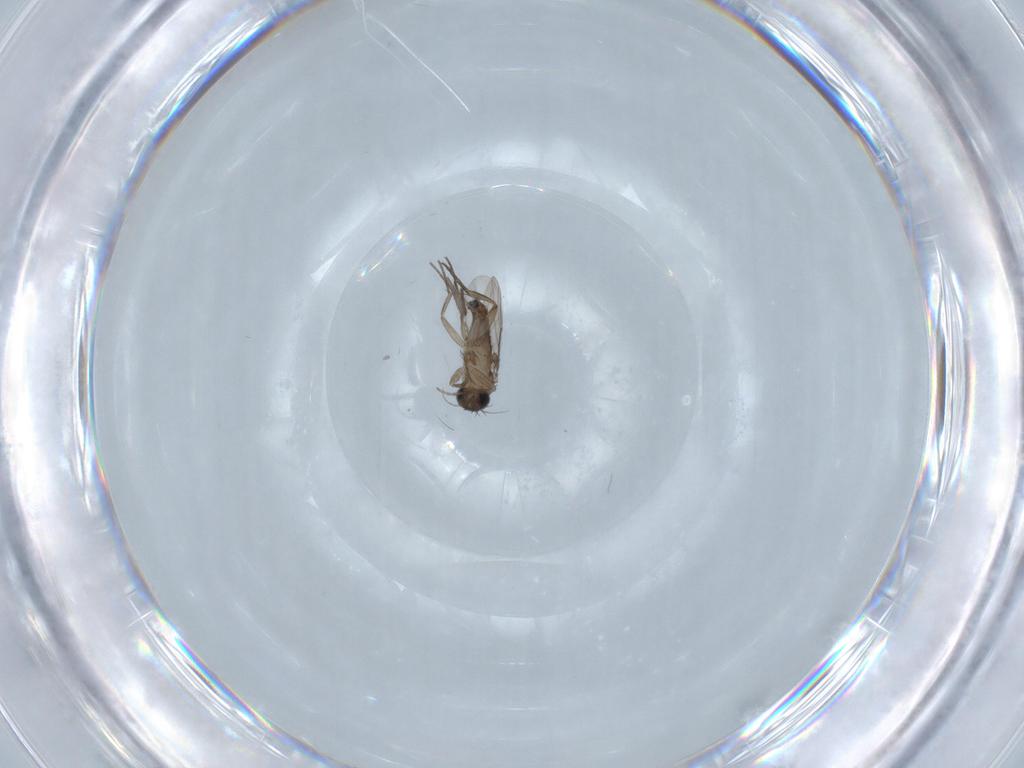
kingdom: Animalia
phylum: Arthropoda
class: Insecta
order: Diptera
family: Phoridae
